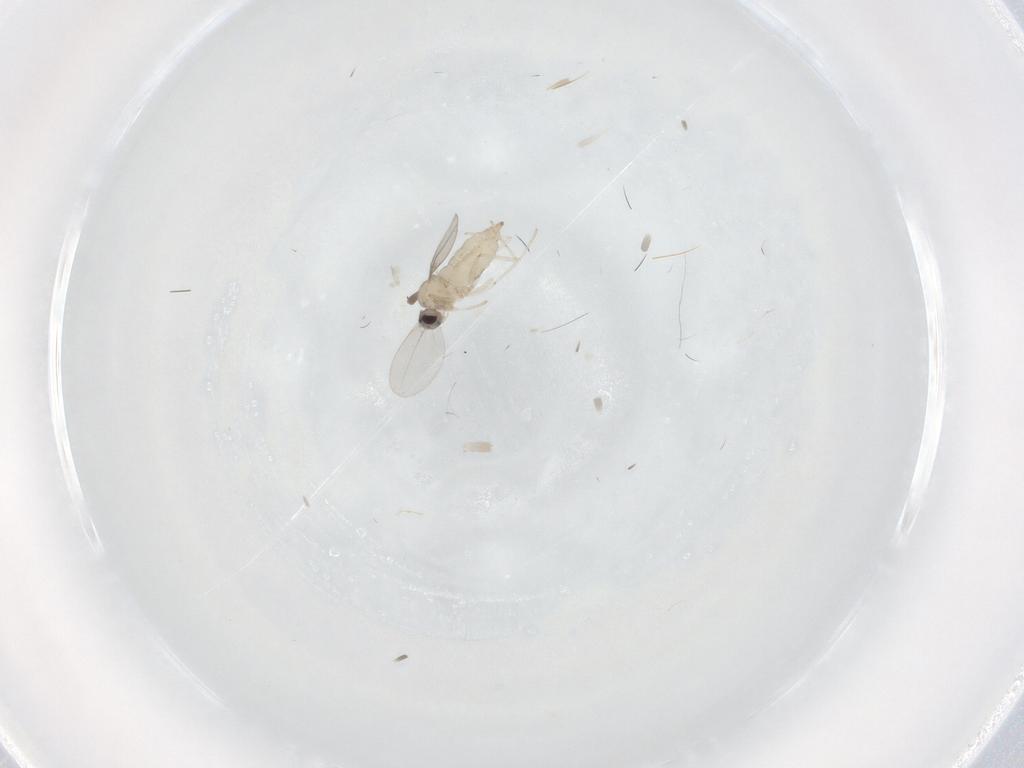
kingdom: Animalia
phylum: Arthropoda
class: Insecta
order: Diptera
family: Cecidomyiidae
